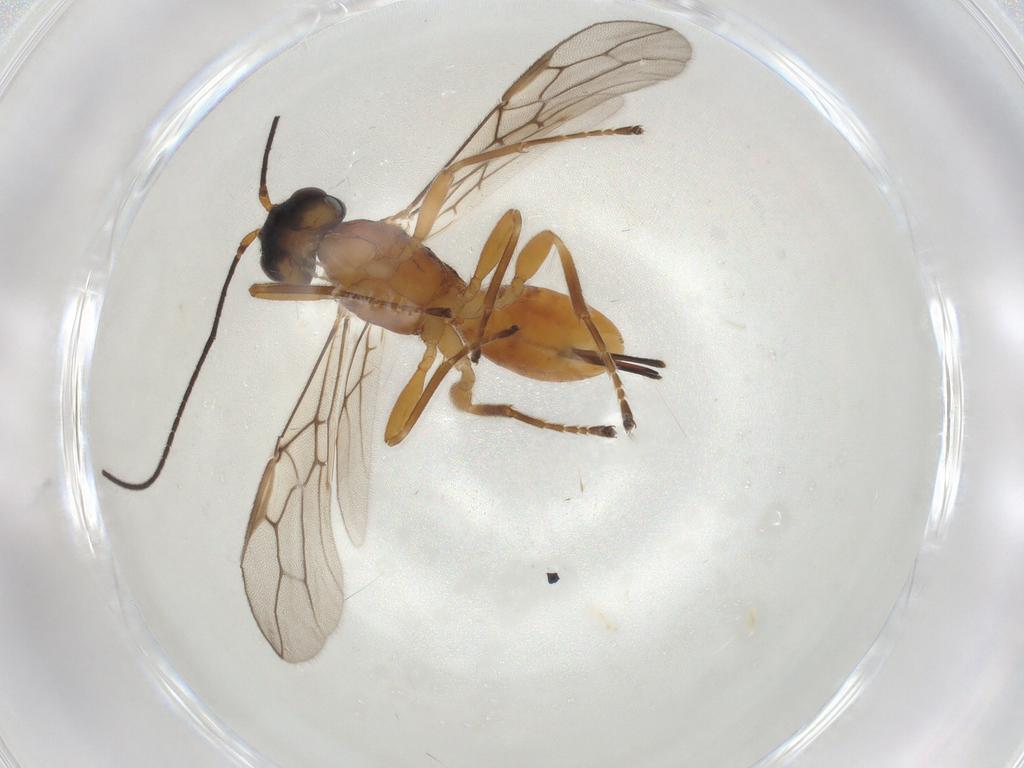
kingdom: Animalia
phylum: Arthropoda
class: Insecta
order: Hymenoptera
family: Braconidae
